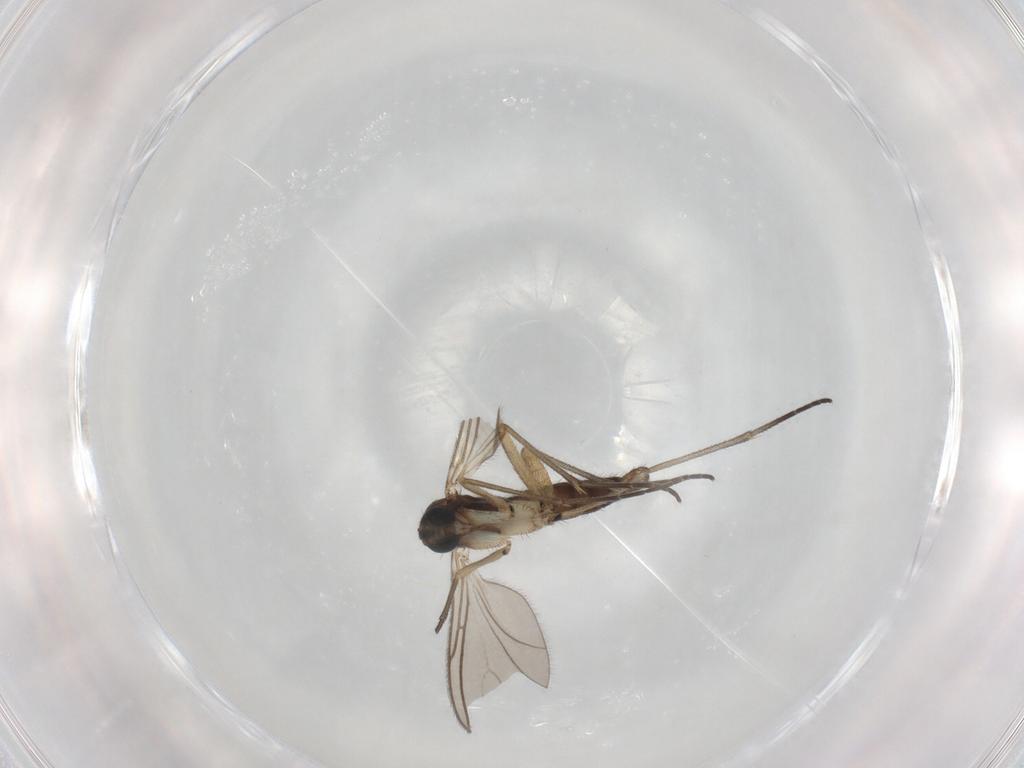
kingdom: Animalia
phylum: Arthropoda
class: Insecta
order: Diptera
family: Sciaridae
